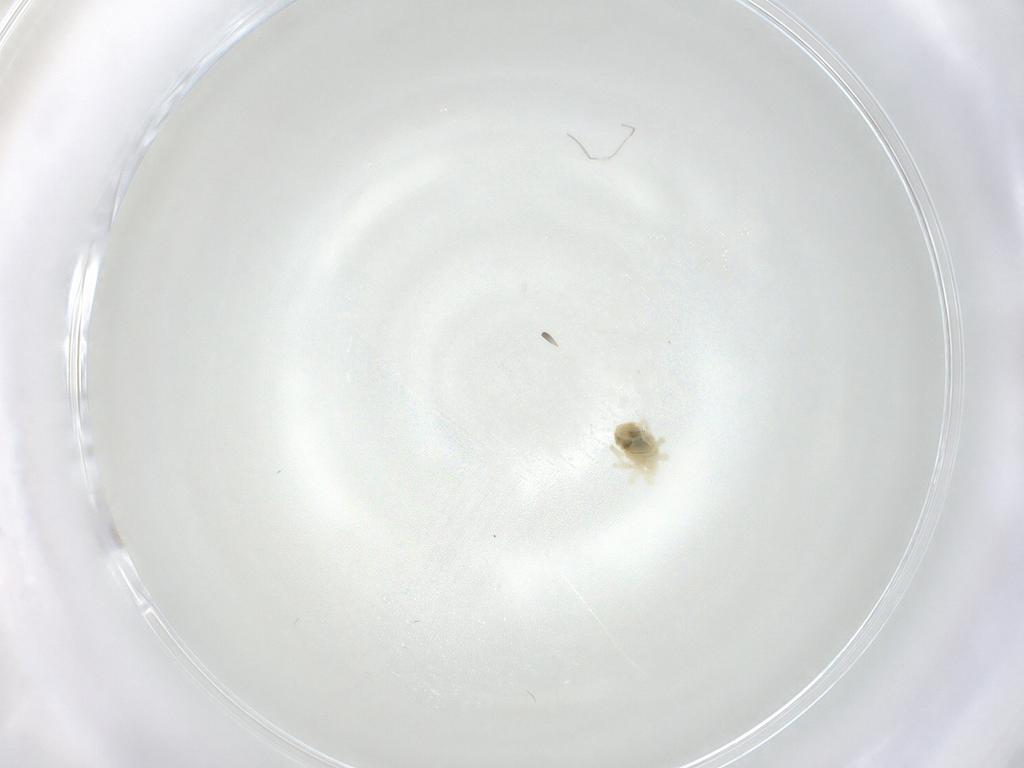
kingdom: Animalia
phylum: Arthropoda
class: Arachnida
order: Trombidiformes
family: Anystidae
